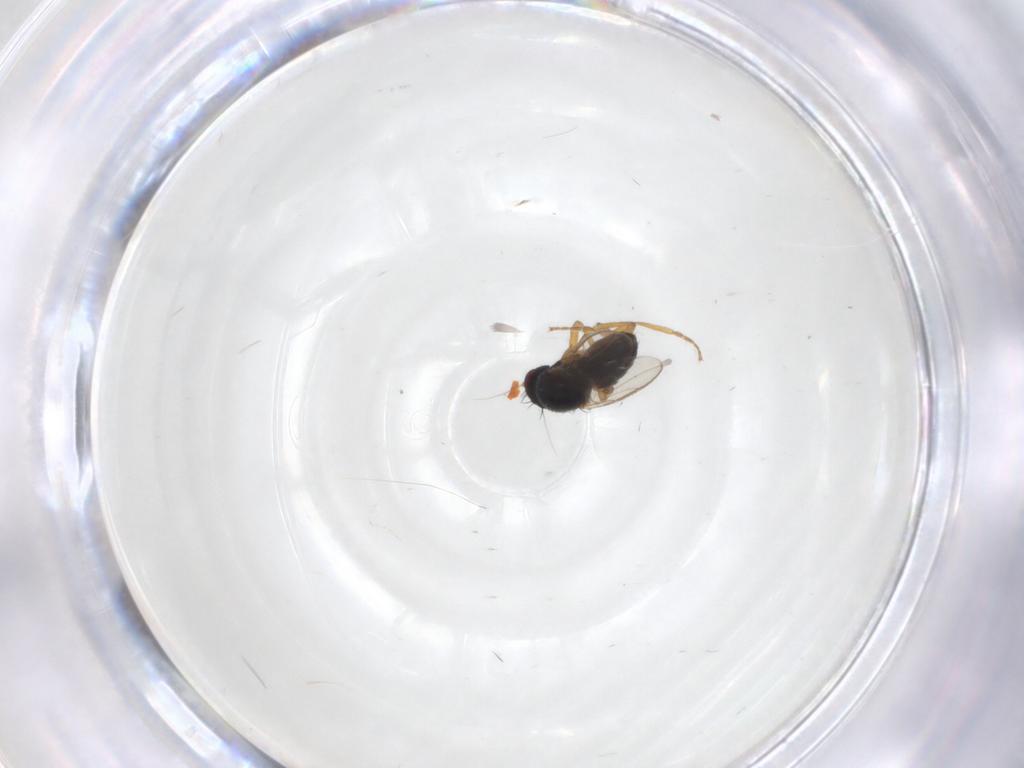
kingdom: Animalia
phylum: Arthropoda
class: Insecta
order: Diptera
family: Sphaeroceridae
